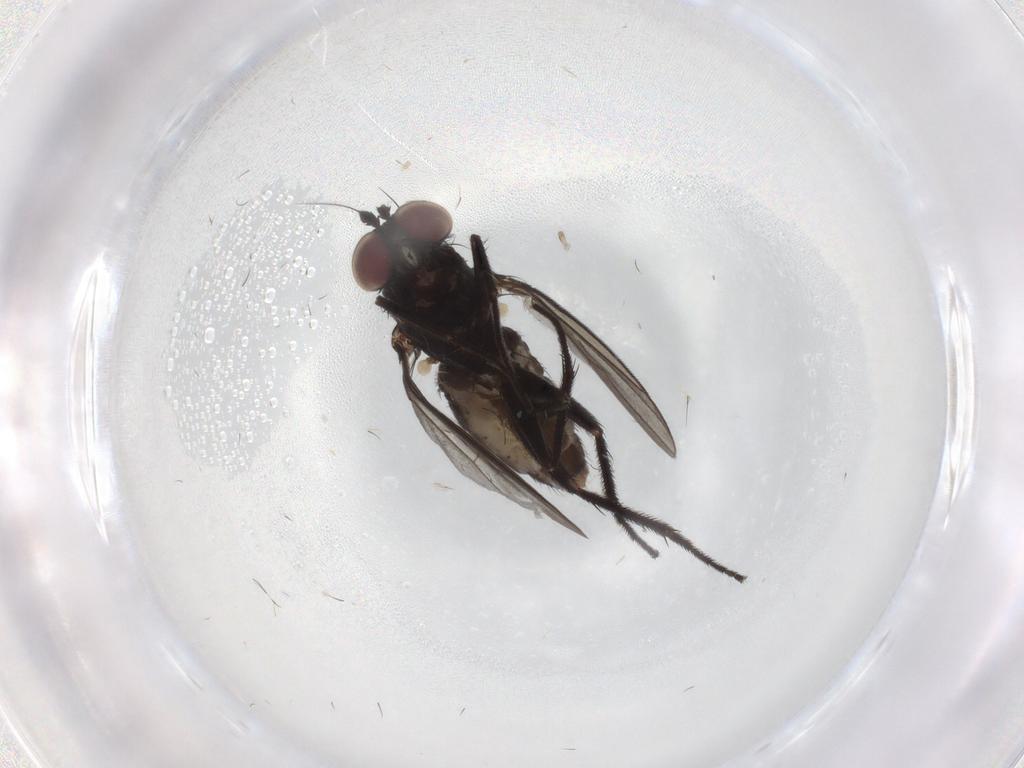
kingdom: Animalia
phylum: Arthropoda
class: Insecta
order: Diptera
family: Dolichopodidae
